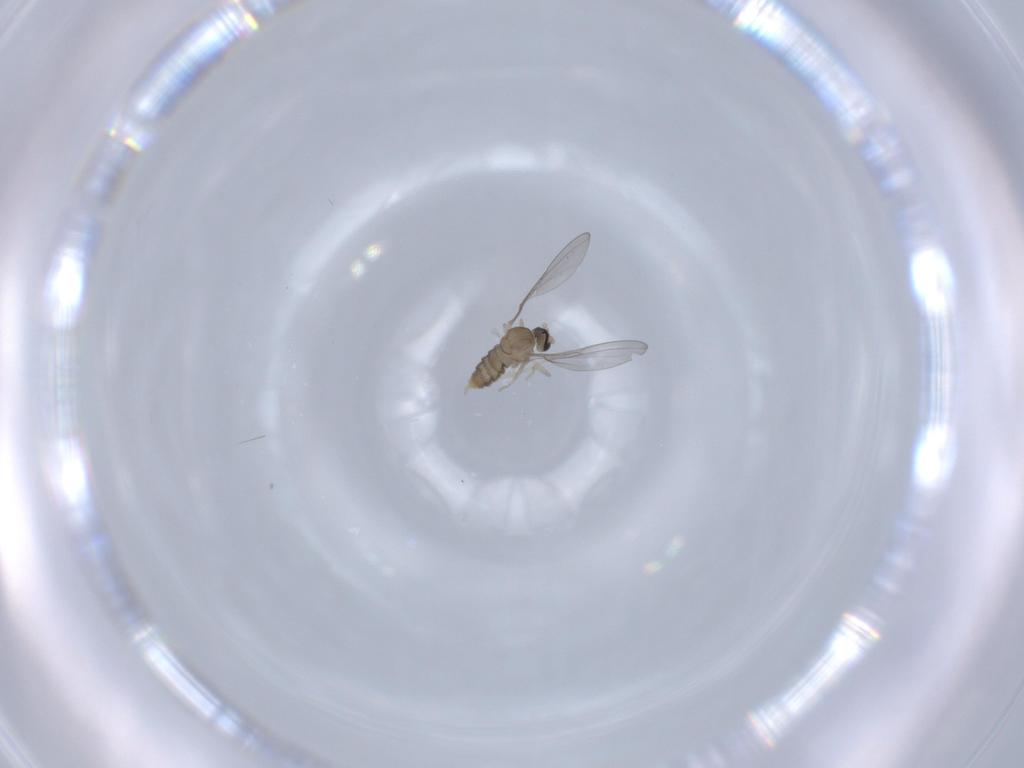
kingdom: Animalia
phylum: Arthropoda
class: Insecta
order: Diptera
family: Cecidomyiidae
